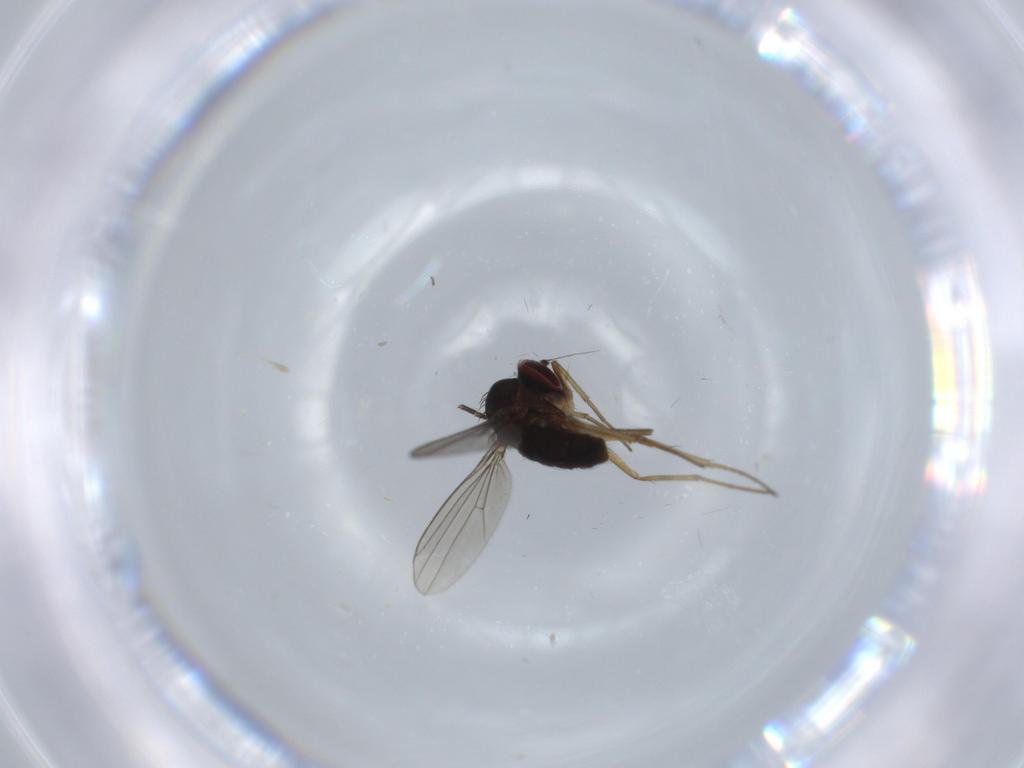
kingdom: Animalia
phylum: Arthropoda
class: Insecta
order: Diptera
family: Dolichopodidae
